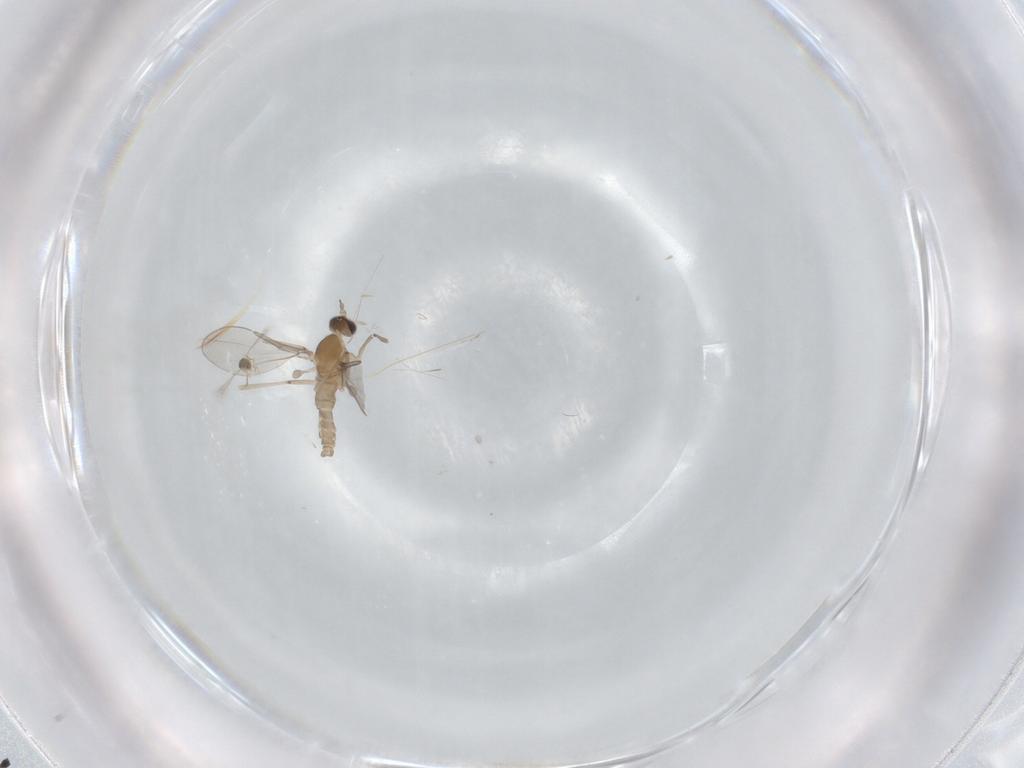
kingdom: Animalia
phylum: Arthropoda
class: Insecta
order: Diptera
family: Cecidomyiidae
